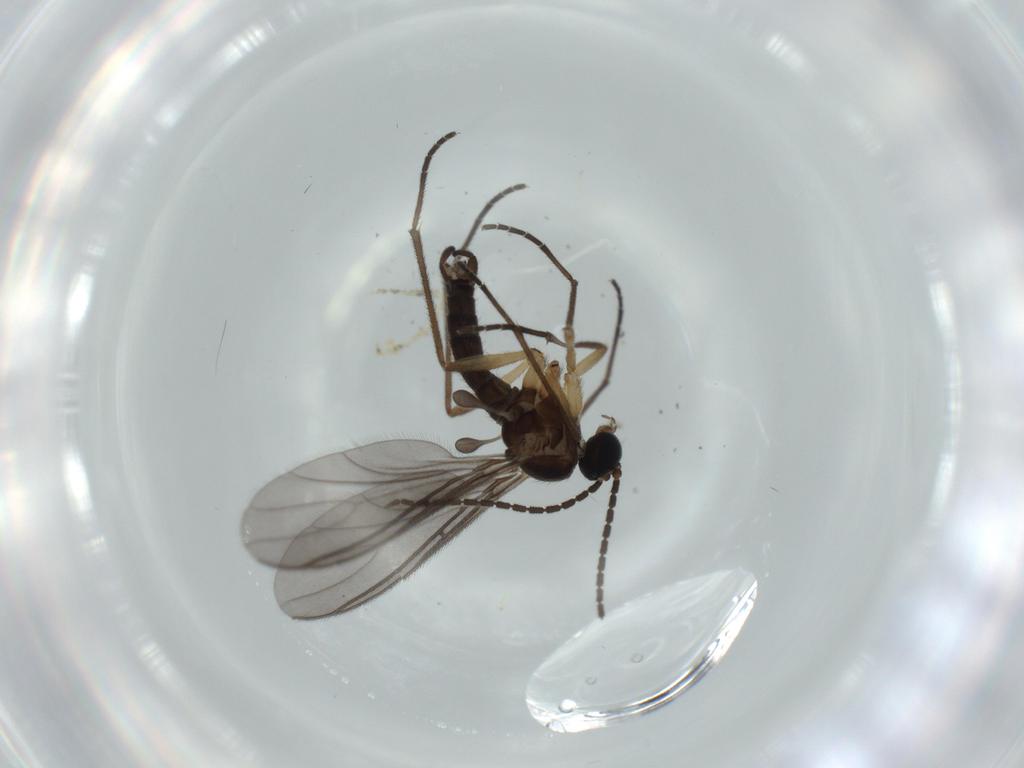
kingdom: Animalia
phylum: Arthropoda
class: Insecta
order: Diptera
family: Sciaridae
